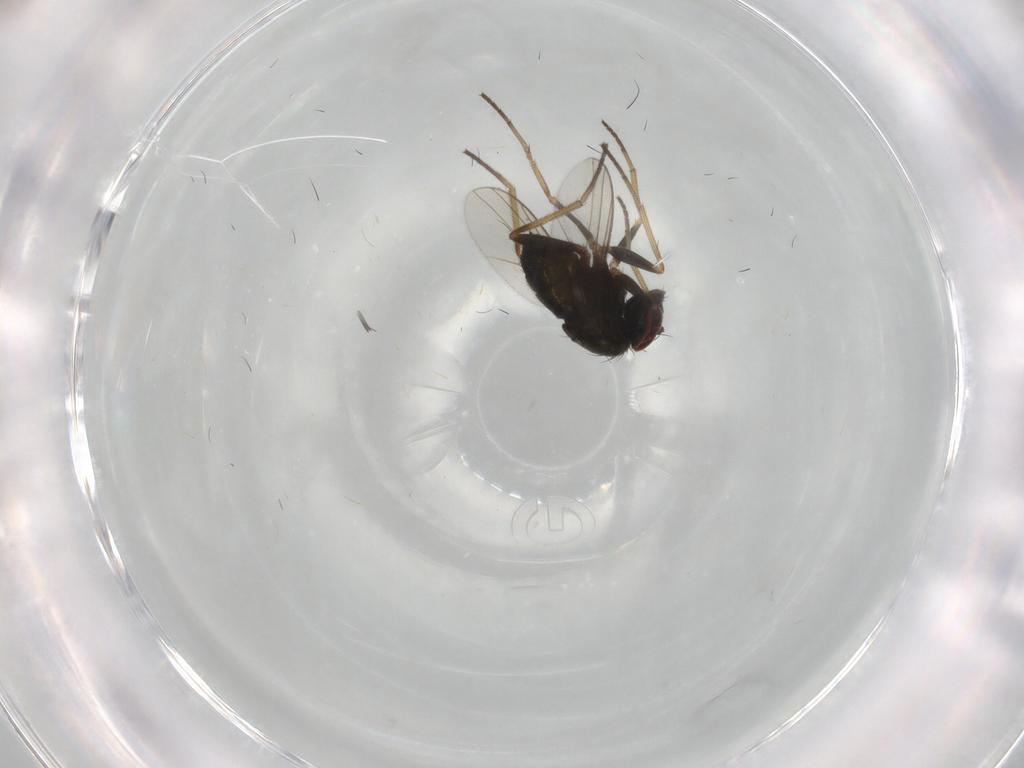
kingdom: Animalia
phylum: Arthropoda
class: Insecta
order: Diptera
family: Dolichopodidae
